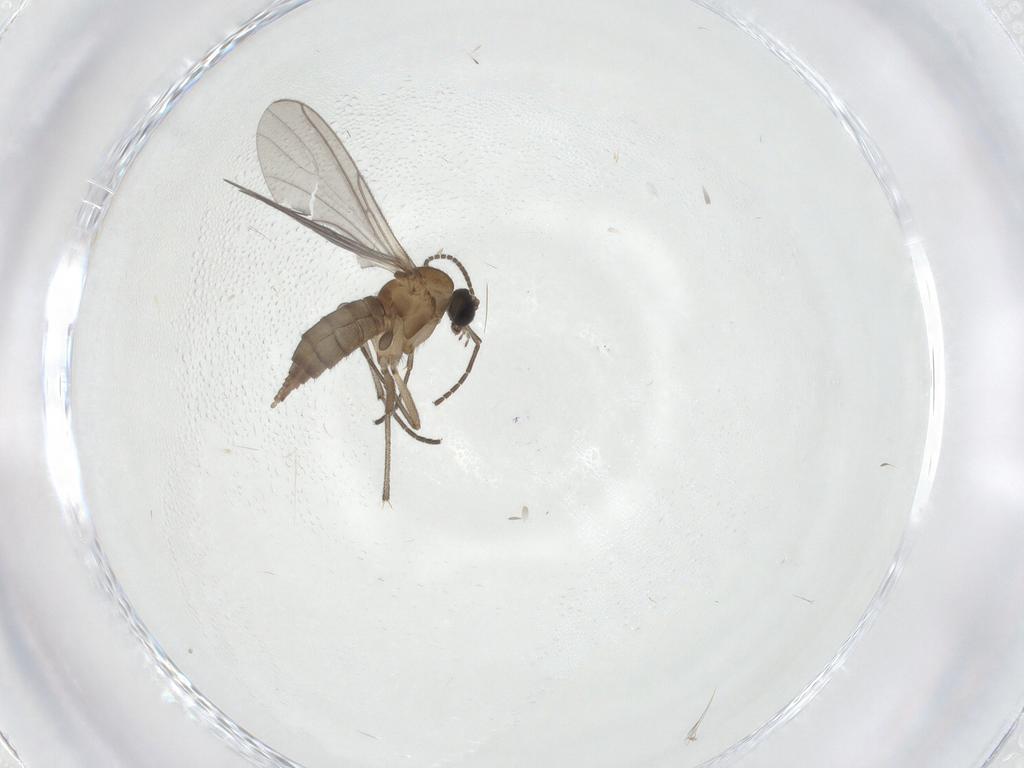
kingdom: Animalia
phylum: Arthropoda
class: Insecta
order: Diptera
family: Sciaridae
